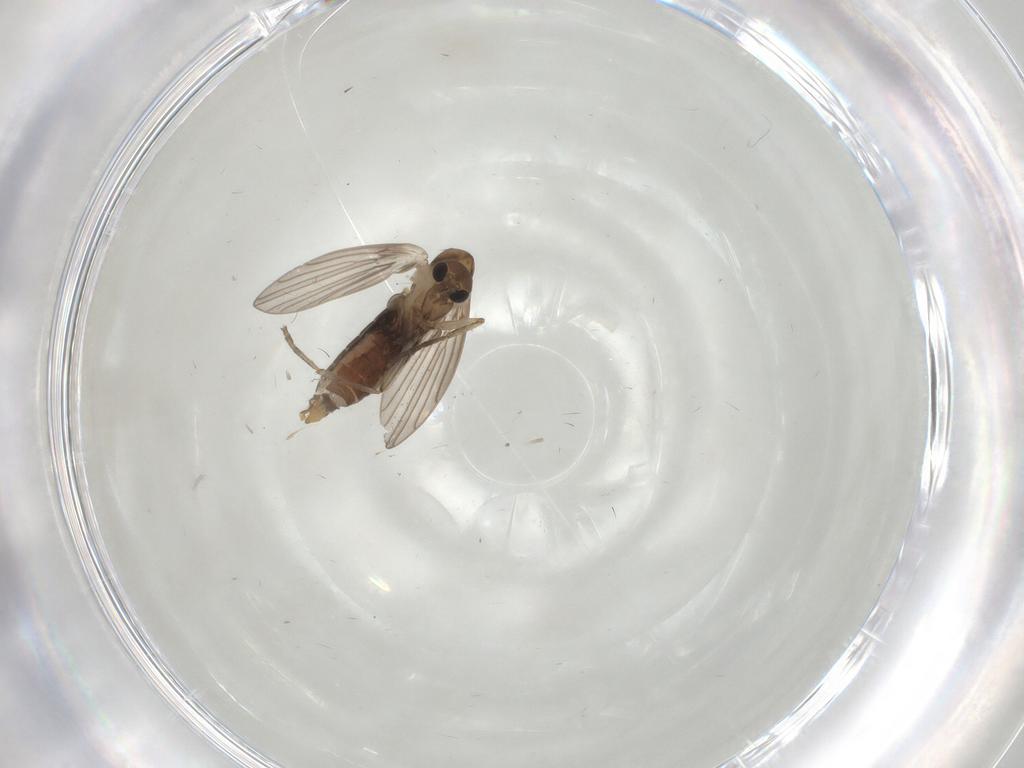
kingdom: Animalia
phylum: Arthropoda
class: Insecta
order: Diptera
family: Psychodidae
